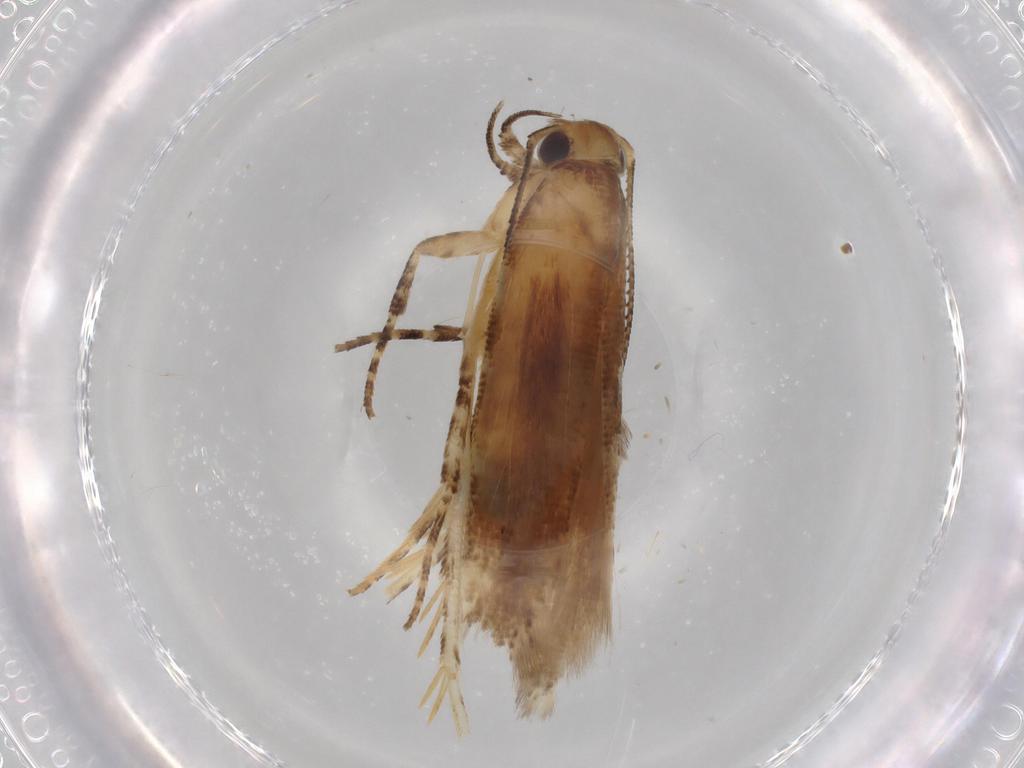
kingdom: Animalia
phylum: Arthropoda
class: Insecta
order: Lepidoptera
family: Gelechiidae
